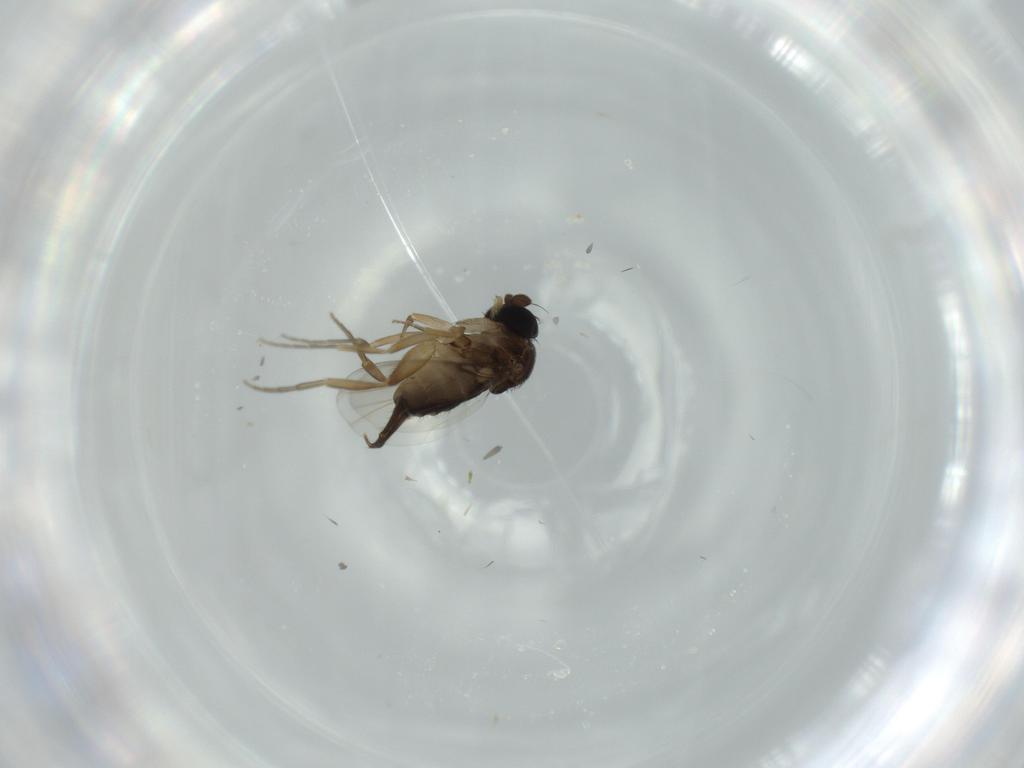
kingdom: Animalia
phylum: Arthropoda
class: Insecta
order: Diptera
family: Phoridae
